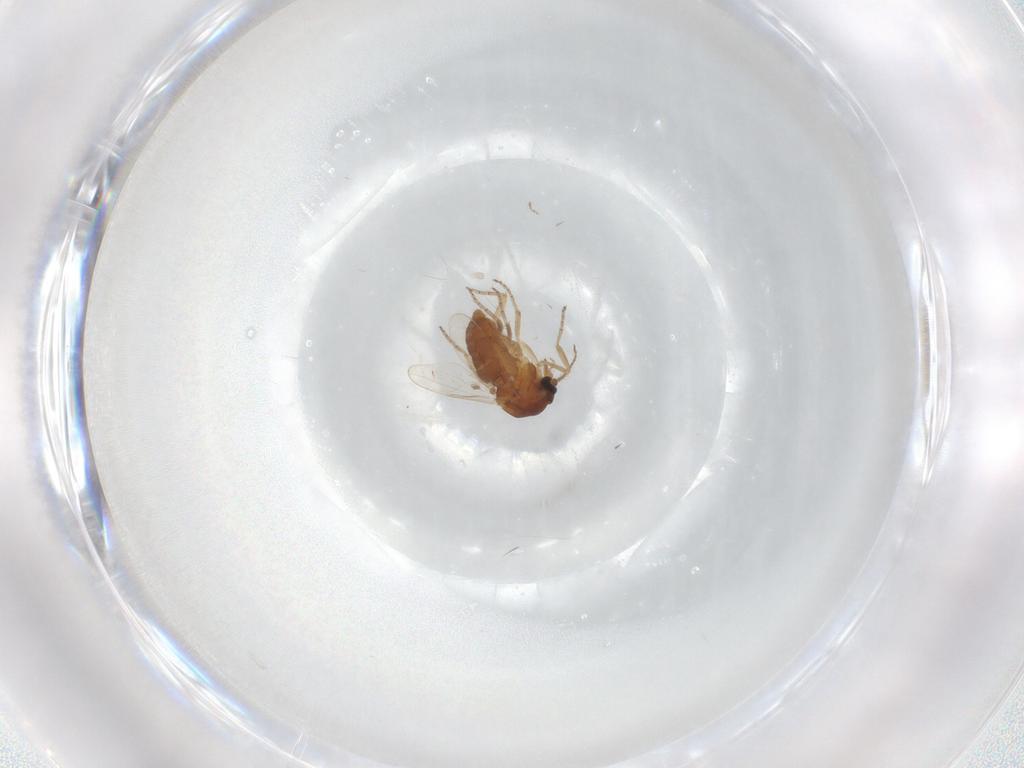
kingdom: Animalia
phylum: Arthropoda
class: Insecta
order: Diptera
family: Ceratopogonidae
